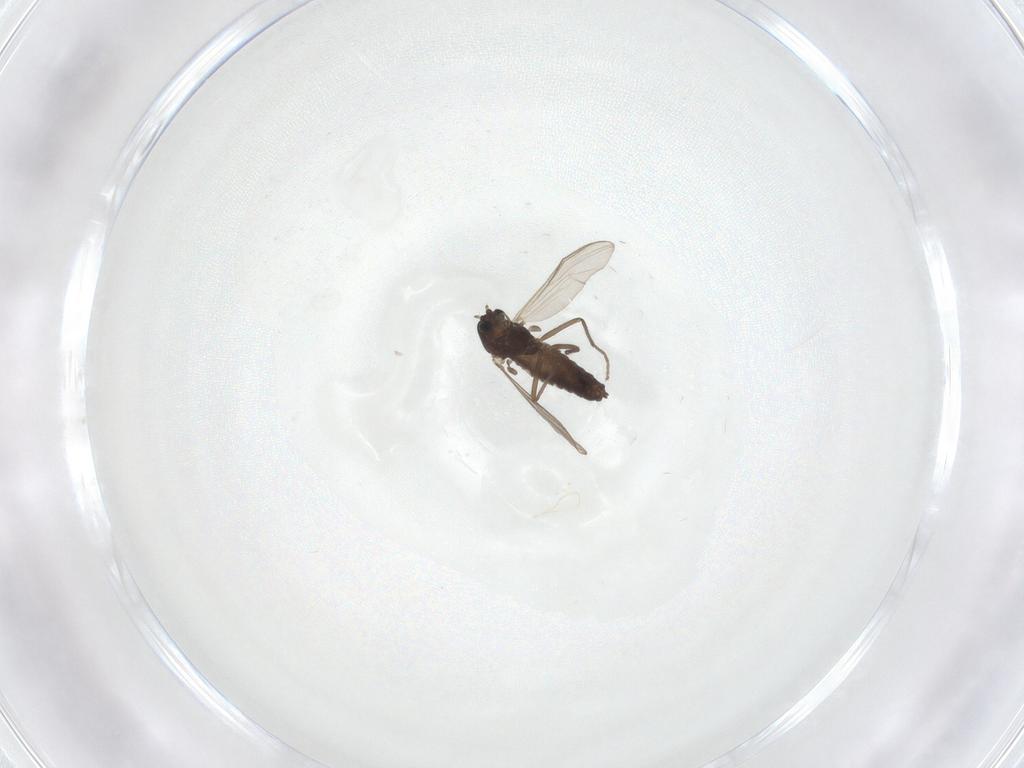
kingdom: Animalia
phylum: Arthropoda
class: Insecta
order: Diptera
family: Chironomidae
